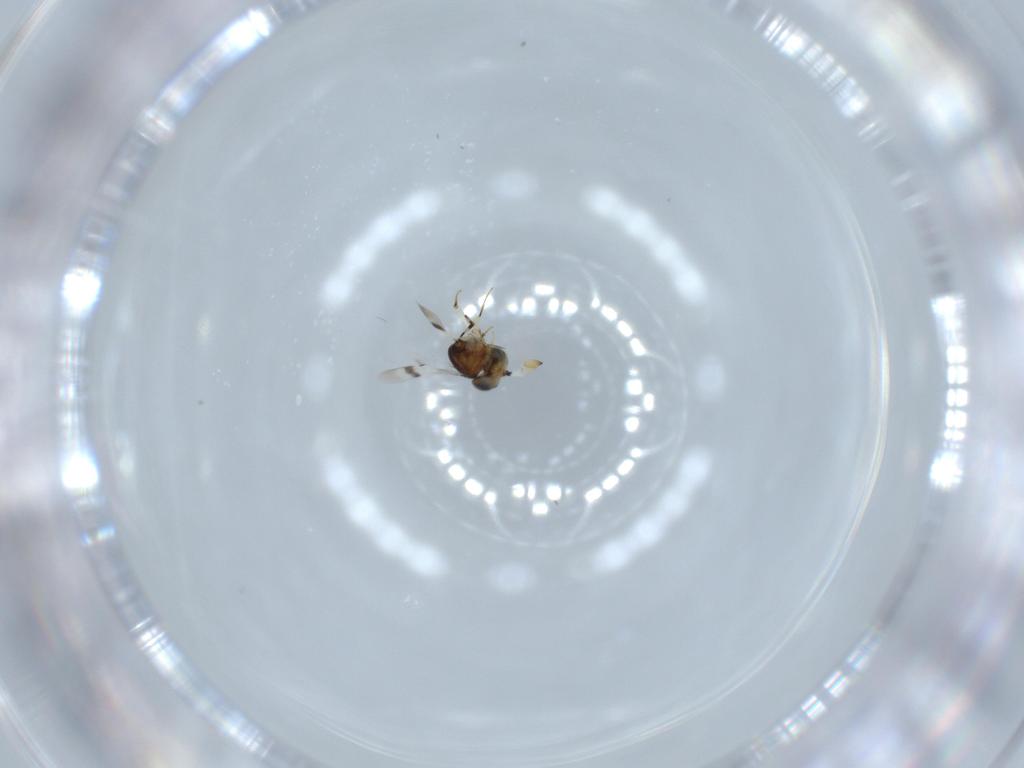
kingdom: Animalia
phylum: Arthropoda
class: Insecta
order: Hymenoptera
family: Scelionidae
